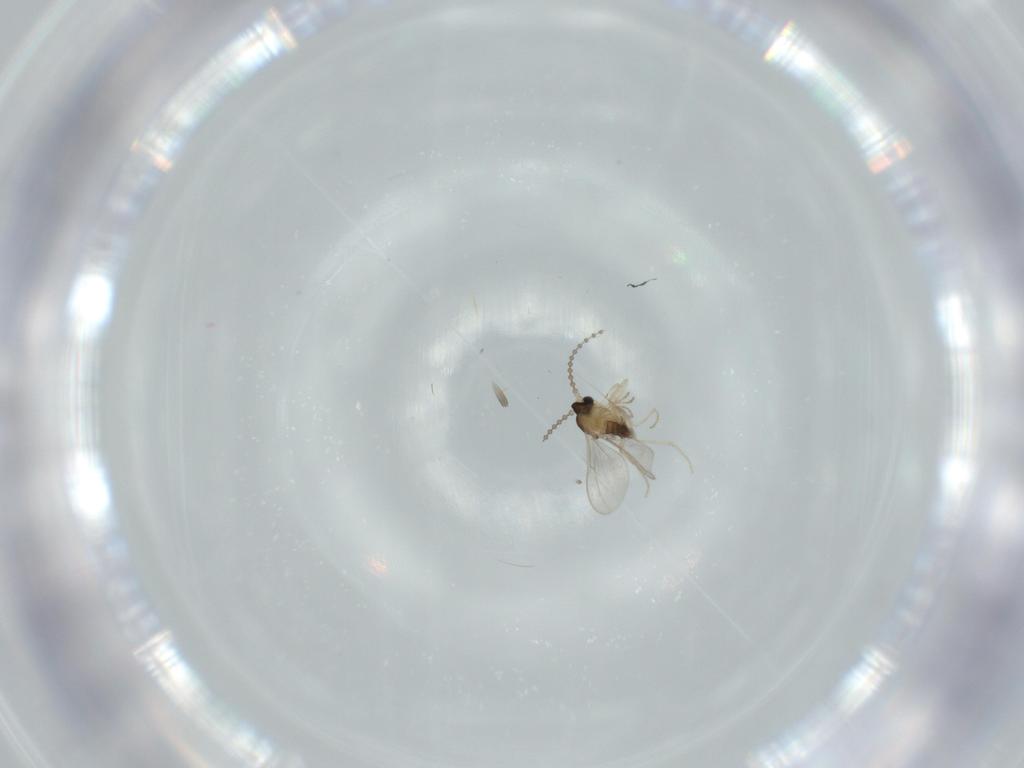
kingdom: Animalia
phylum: Arthropoda
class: Insecta
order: Diptera
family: Cecidomyiidae
